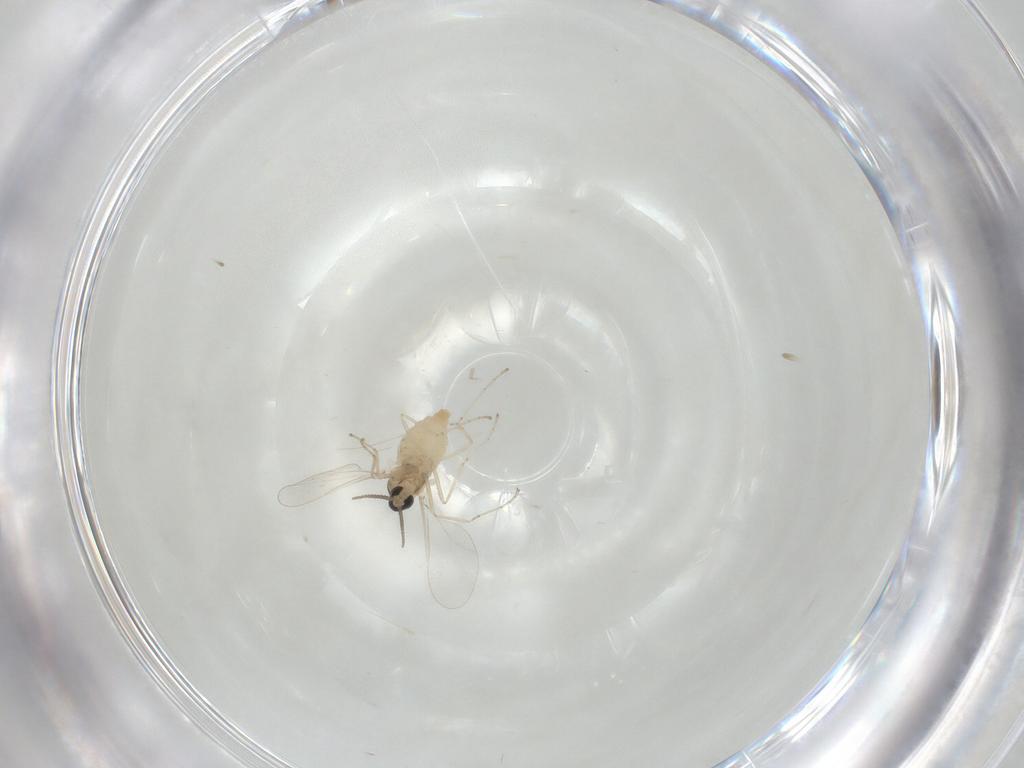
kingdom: Animalia
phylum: Arthropoda
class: Insecta
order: Diptera
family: Cecidomyiidae
